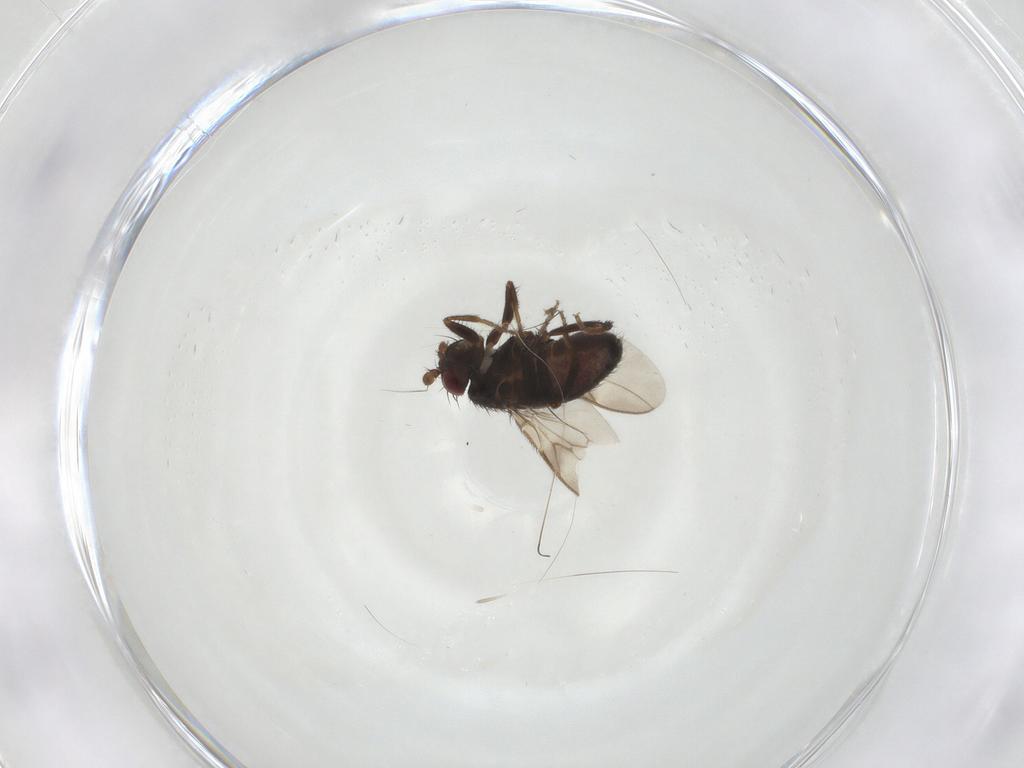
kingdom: Animalia
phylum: Arthropoda
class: Insecta
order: Diptera
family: Sphaeroceridae
